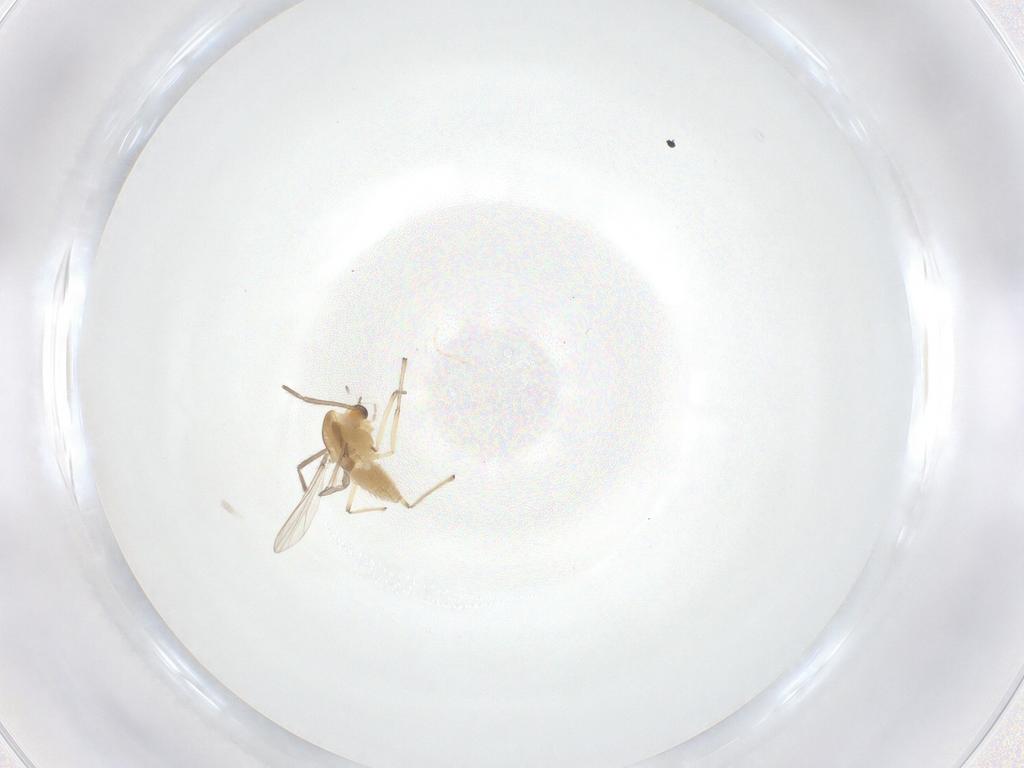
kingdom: Animalia
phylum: Arthropoda
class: Insecta
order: Diptera
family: Chironomidae
